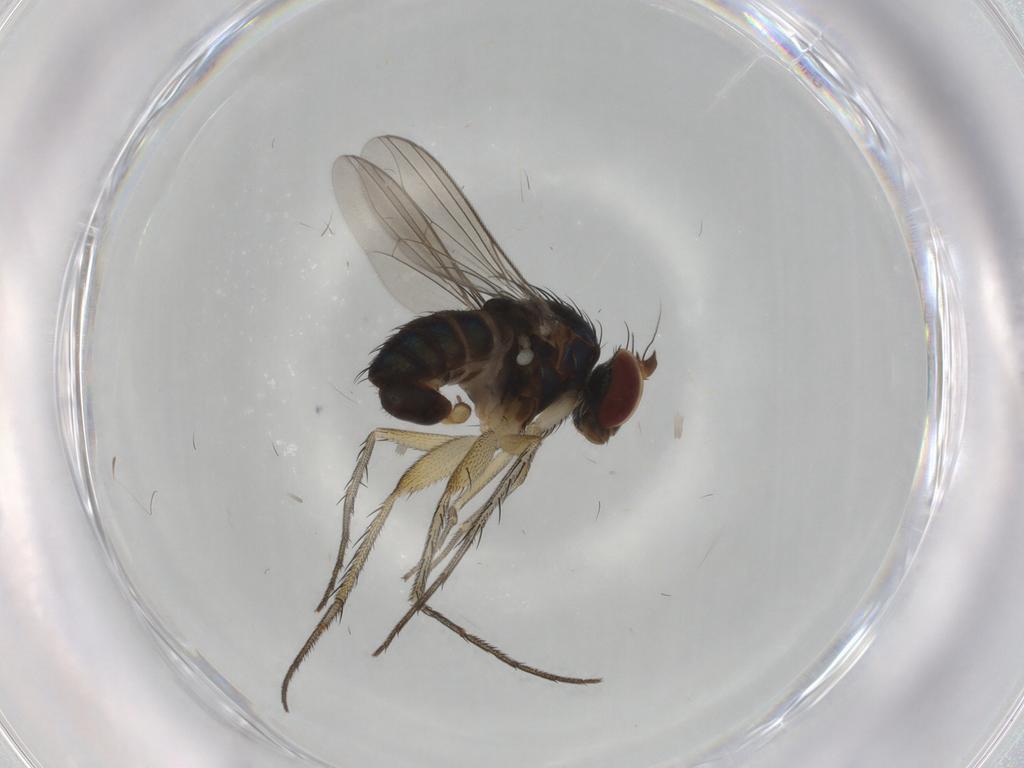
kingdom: Animalia
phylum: Arthropoda
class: Insecta
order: Diptera
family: Dolichopodidae
